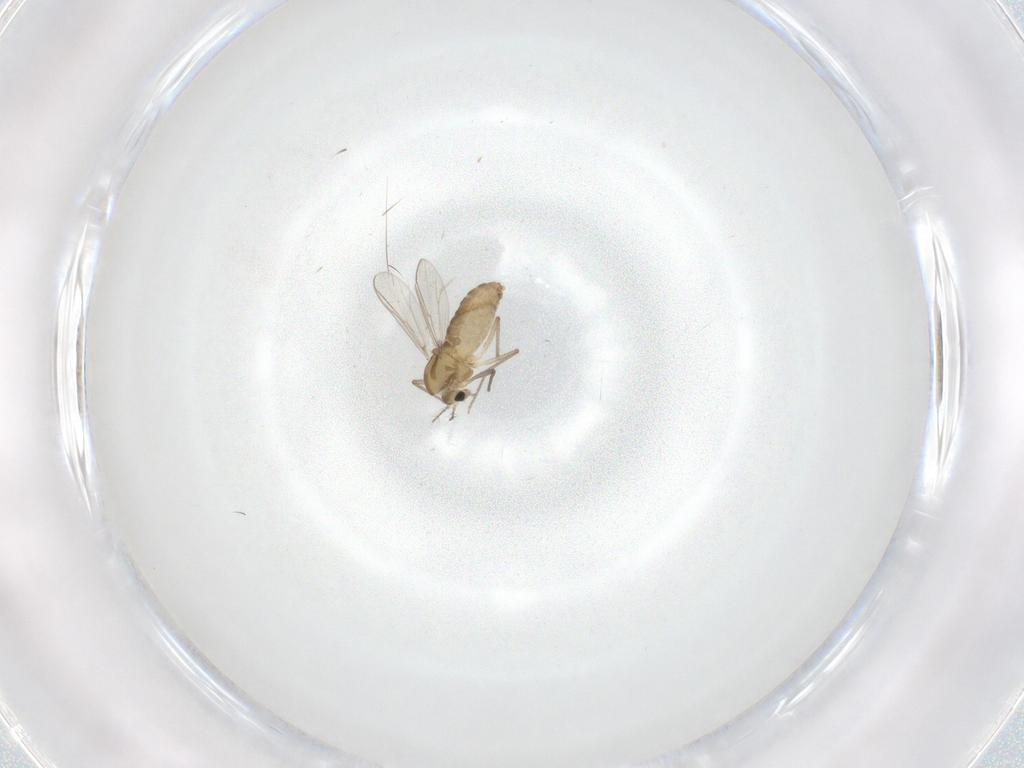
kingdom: Animalia
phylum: Arthropoda
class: Insecta
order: Diptera
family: Chironomidae
